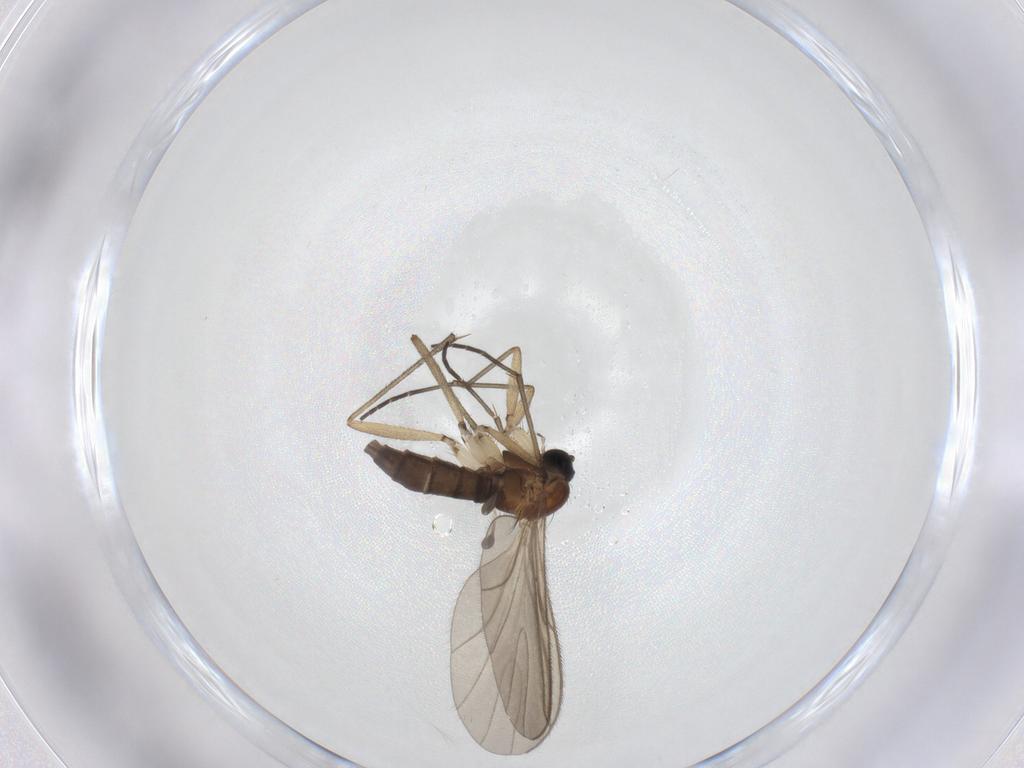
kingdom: Animalia
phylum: Arthropoda
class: Insecta
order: Diptera
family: Sciaridae
